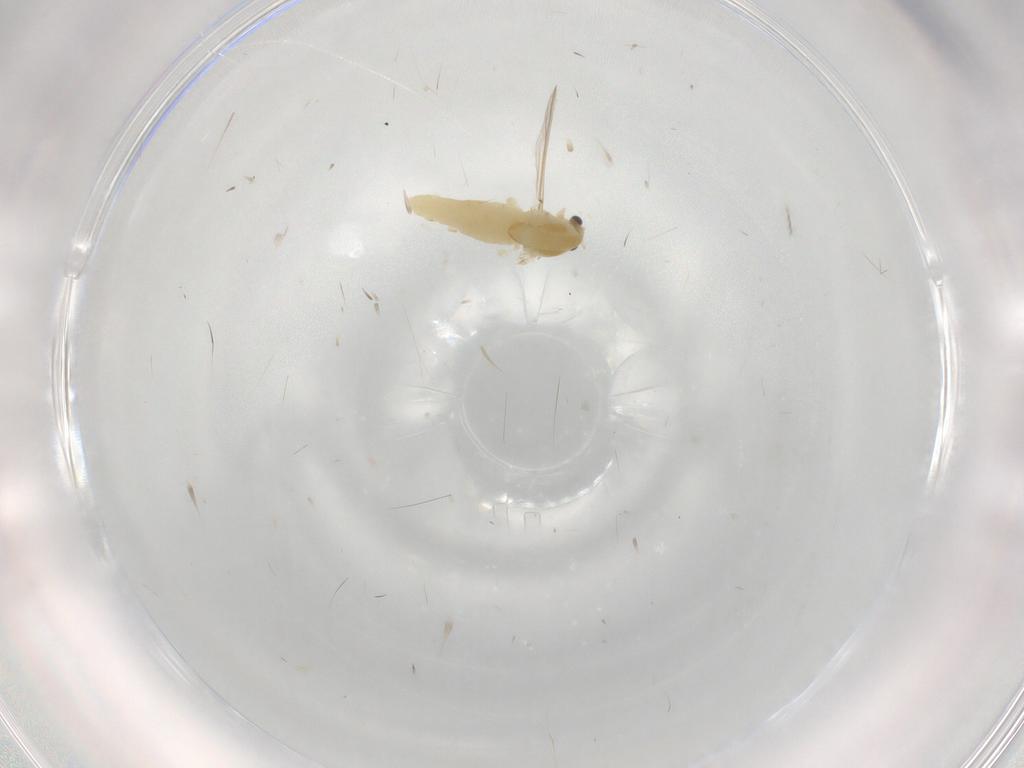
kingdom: Animalia
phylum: Arthropoda
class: Insecta
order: Diptera
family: Chironomidae
